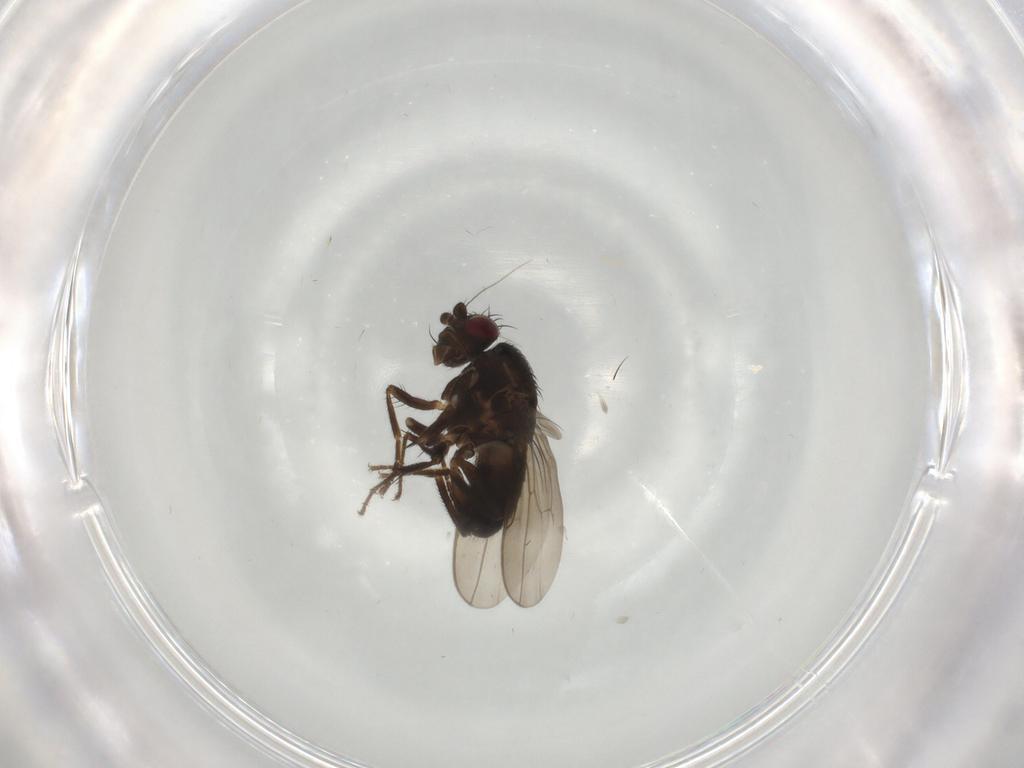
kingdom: Animalia
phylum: Arthropoda
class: Insecta
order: Diptera
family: Sphaeroceridae
